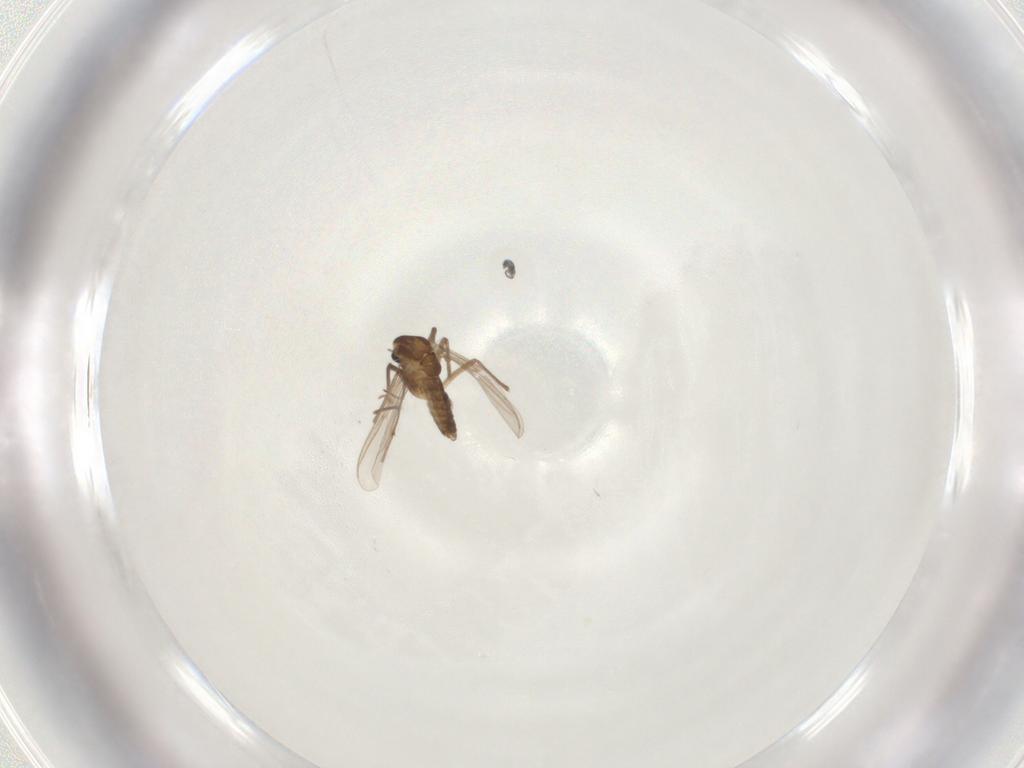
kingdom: Animalia
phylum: Arthropoda
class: Insecta
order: Diptera
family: Chironomidae
